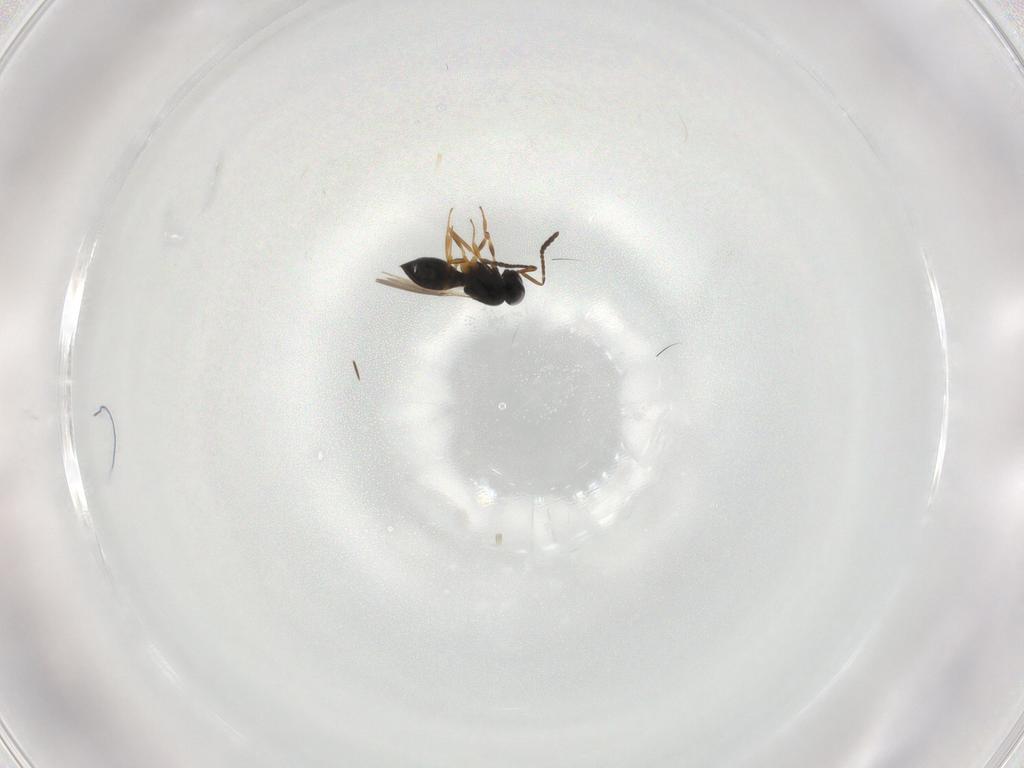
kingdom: Animalia
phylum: Arthropoda
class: Insecta
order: Hymenoptera
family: Scelionidae
